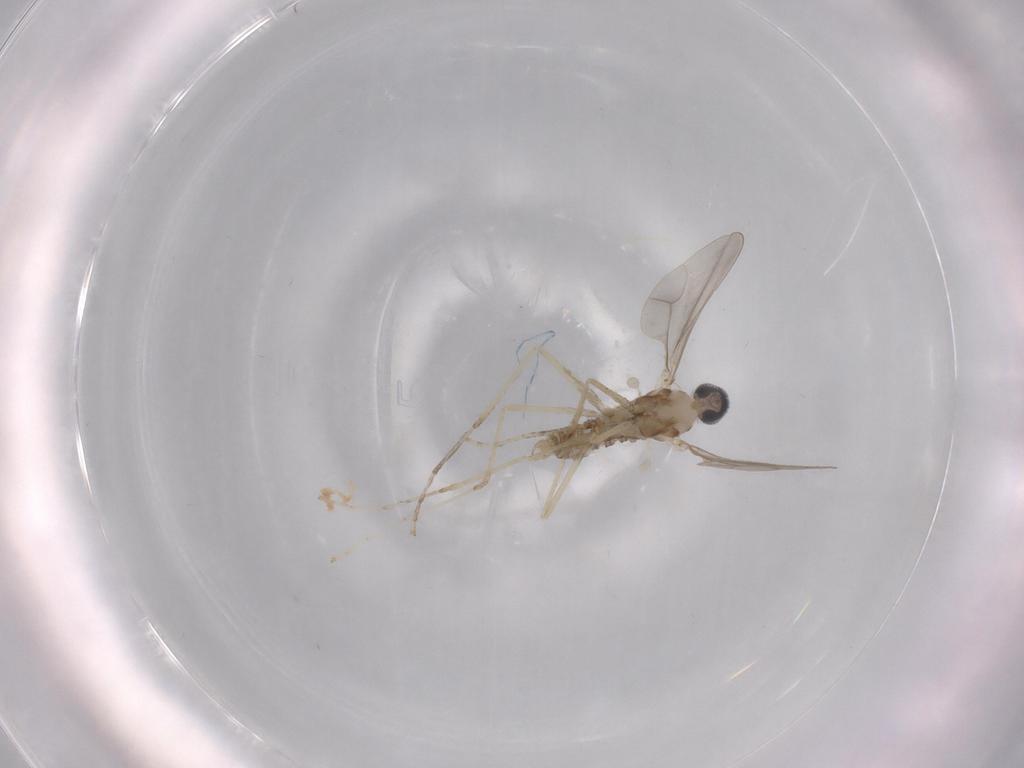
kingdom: Animalia
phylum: Arthropoda
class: Insecta
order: Diptera
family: Cecidomyiidae
